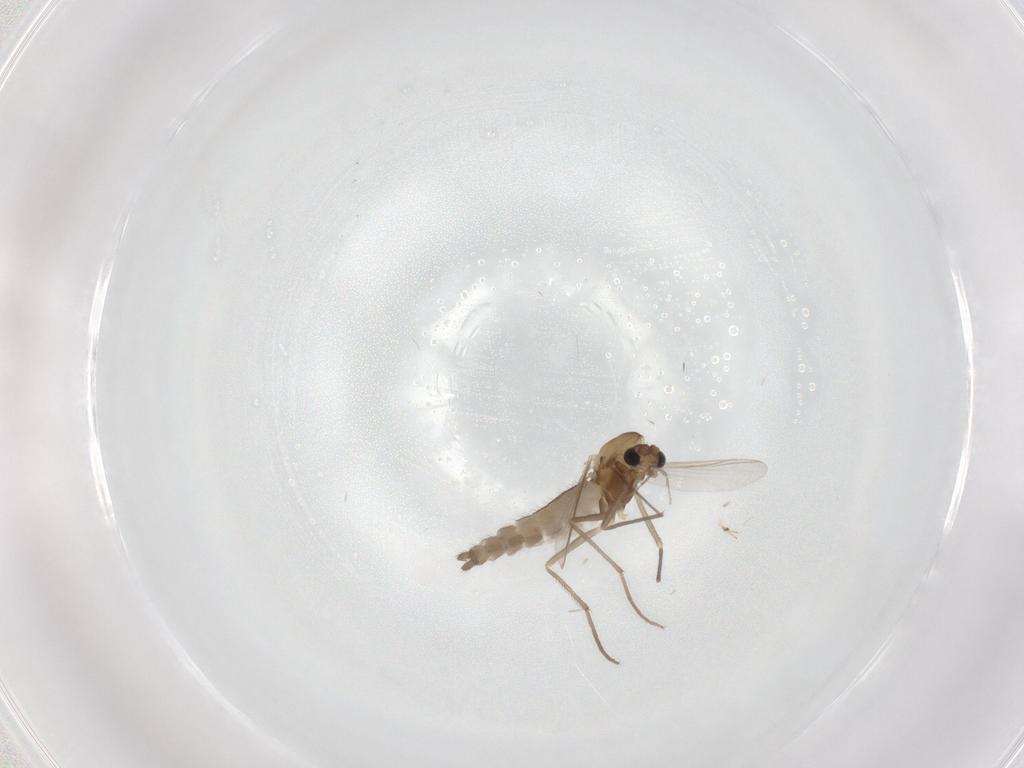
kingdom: Animalia
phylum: Arthropoda
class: Insecta
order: Diptera
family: Chironomidae
